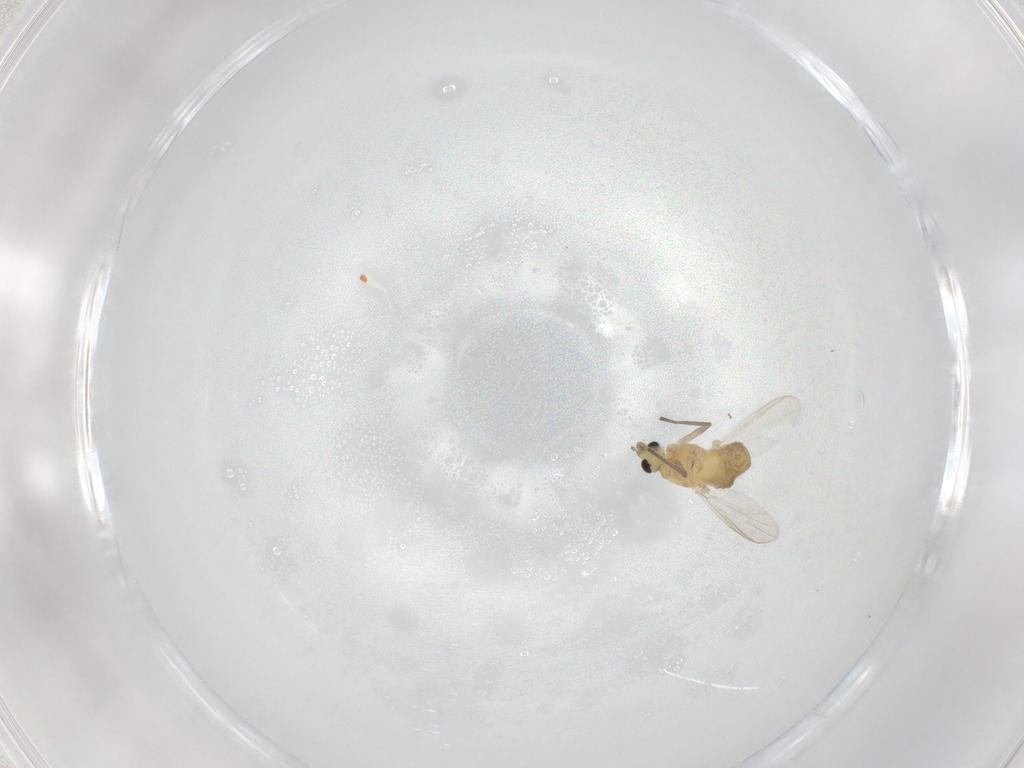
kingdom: Animalia
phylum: Arthropoda
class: Insecta
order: Diptera
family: Chironomidae
